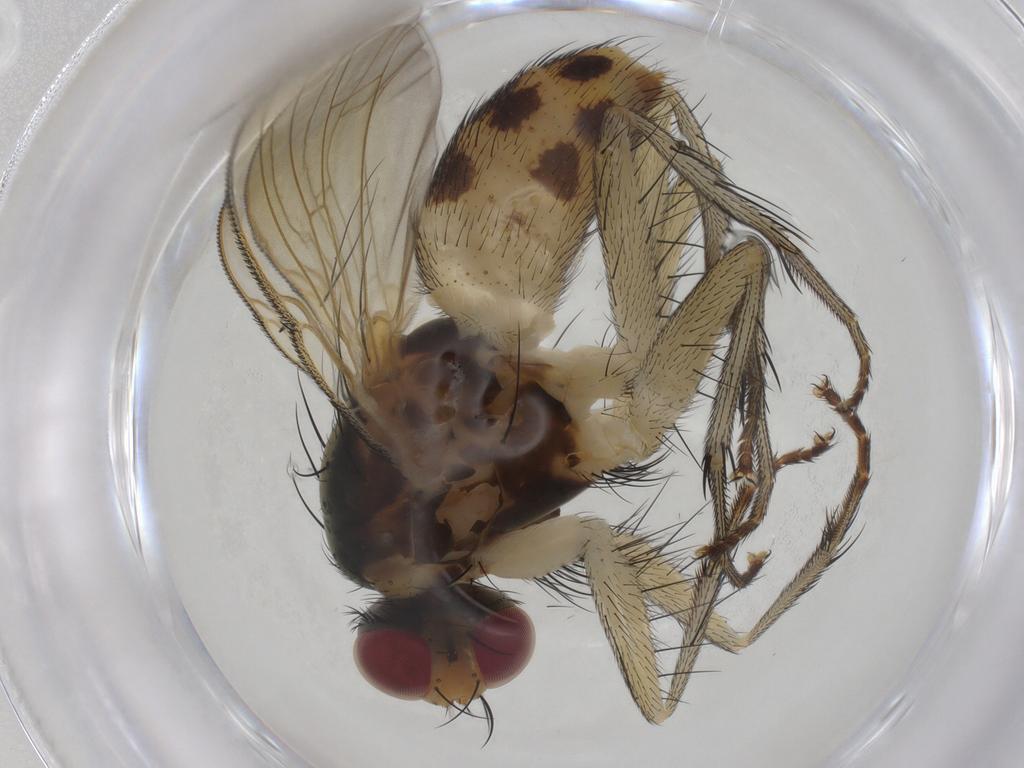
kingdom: Animalia
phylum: Arthropoda
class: Insecta
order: Diptera
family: Muscidae
